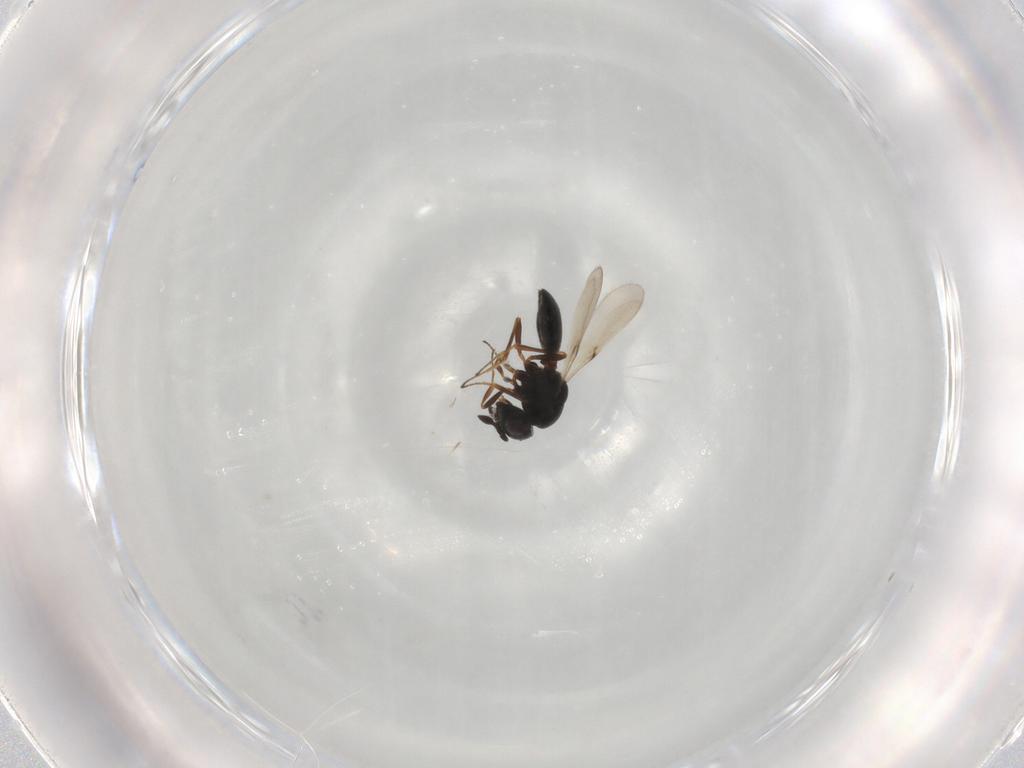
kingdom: Animalia
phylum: Arthropoda
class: Insecta
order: Hymenoptera
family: Scelionidae
